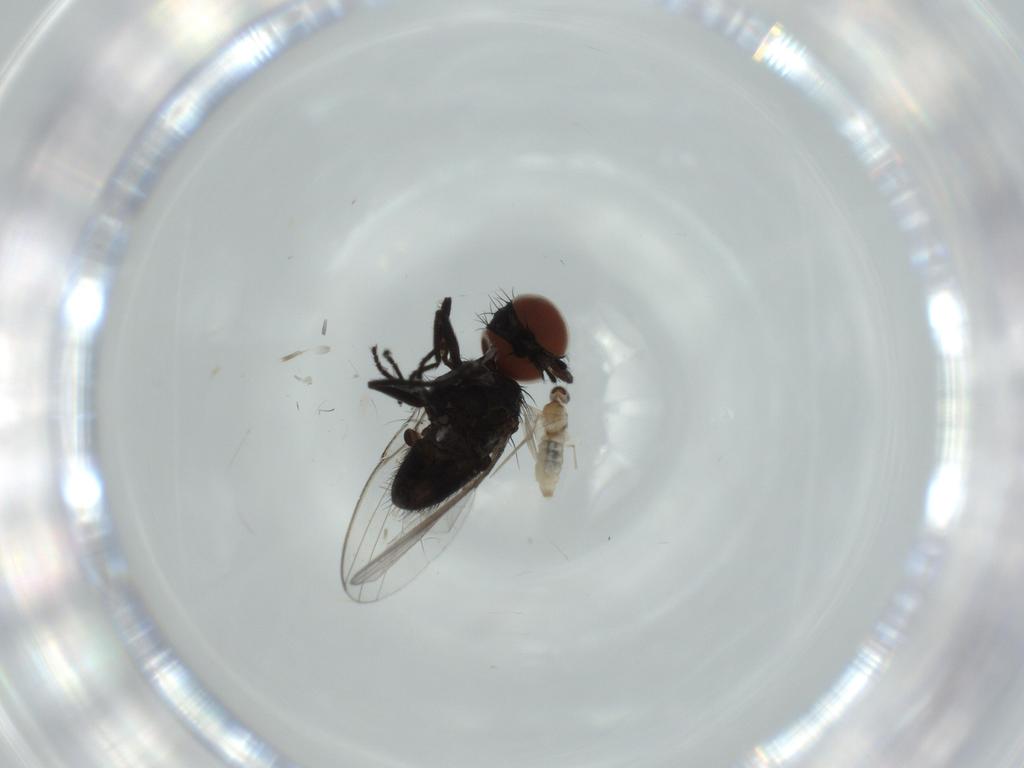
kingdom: Animalia
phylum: Arthropoda
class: Insecta
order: Diptera
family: Cecidomyiidae
